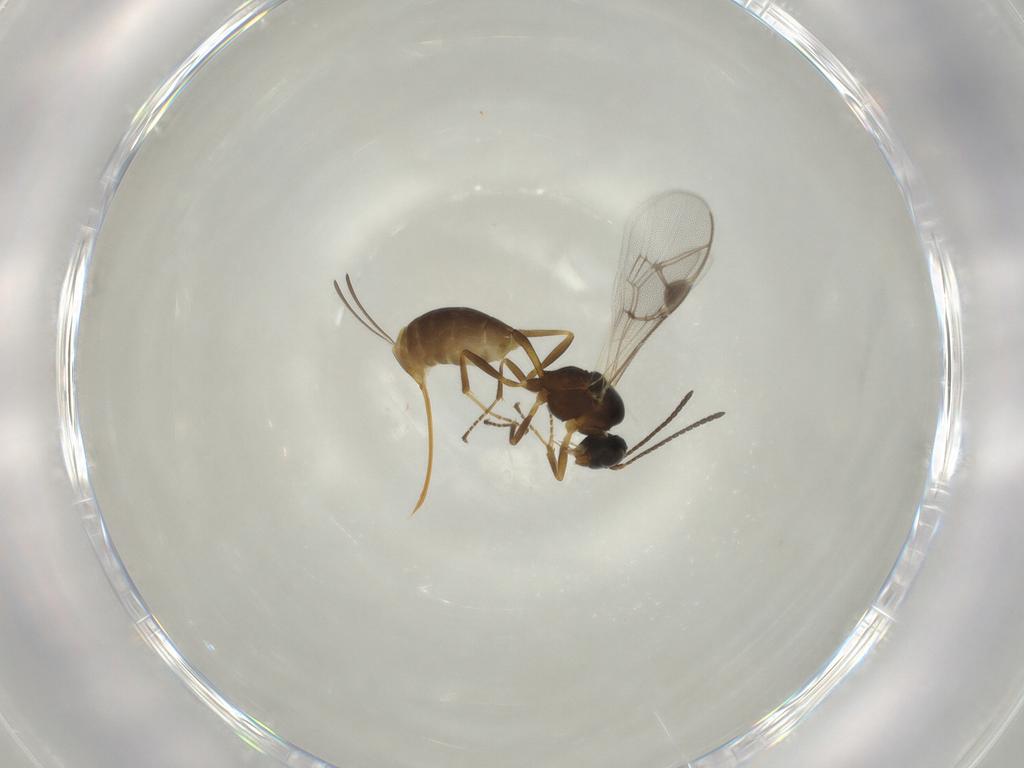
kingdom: Animalia
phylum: Arthropoda
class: Insecta
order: Hymenoptera
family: Ichneumonidae
